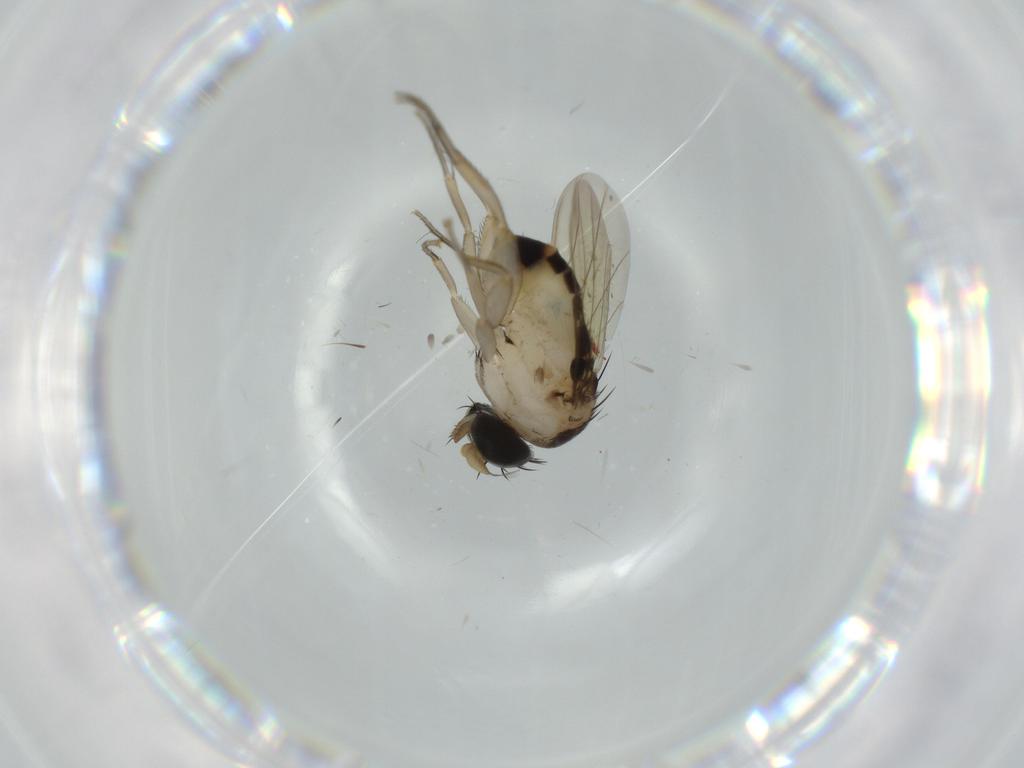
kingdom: Animalia
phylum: Arthropoda
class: Insecta
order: Diptera
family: Phoridae
